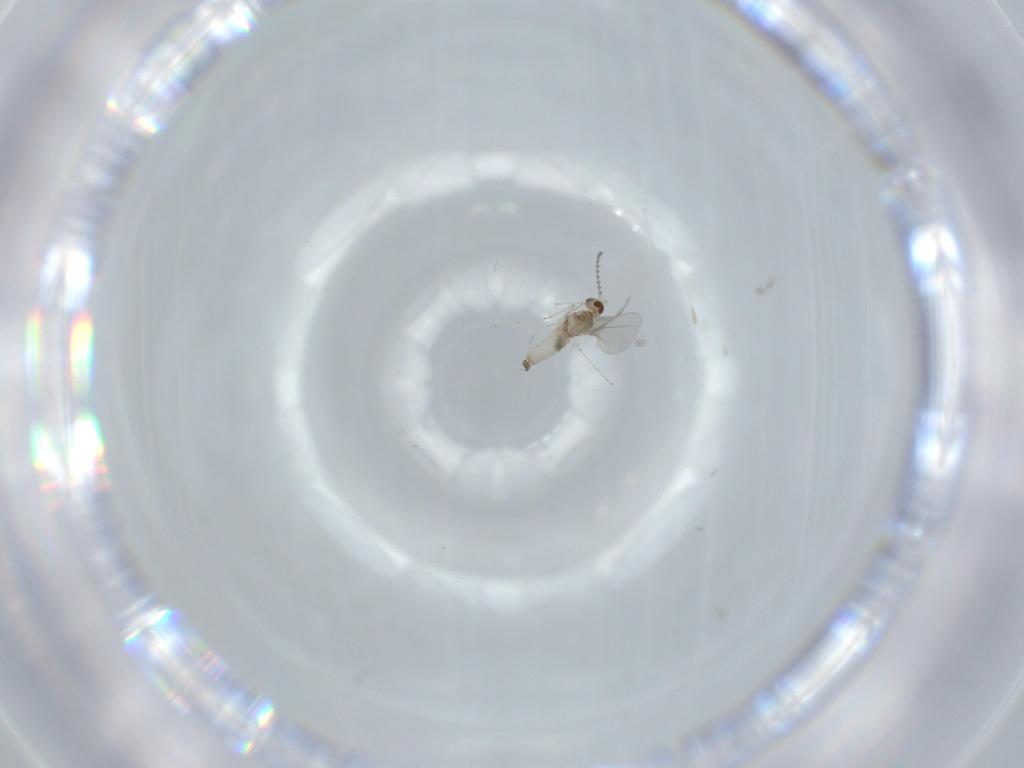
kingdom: Animalia
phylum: Arthropoda
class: Insecta
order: Diptera
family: Cecidomyiidae
